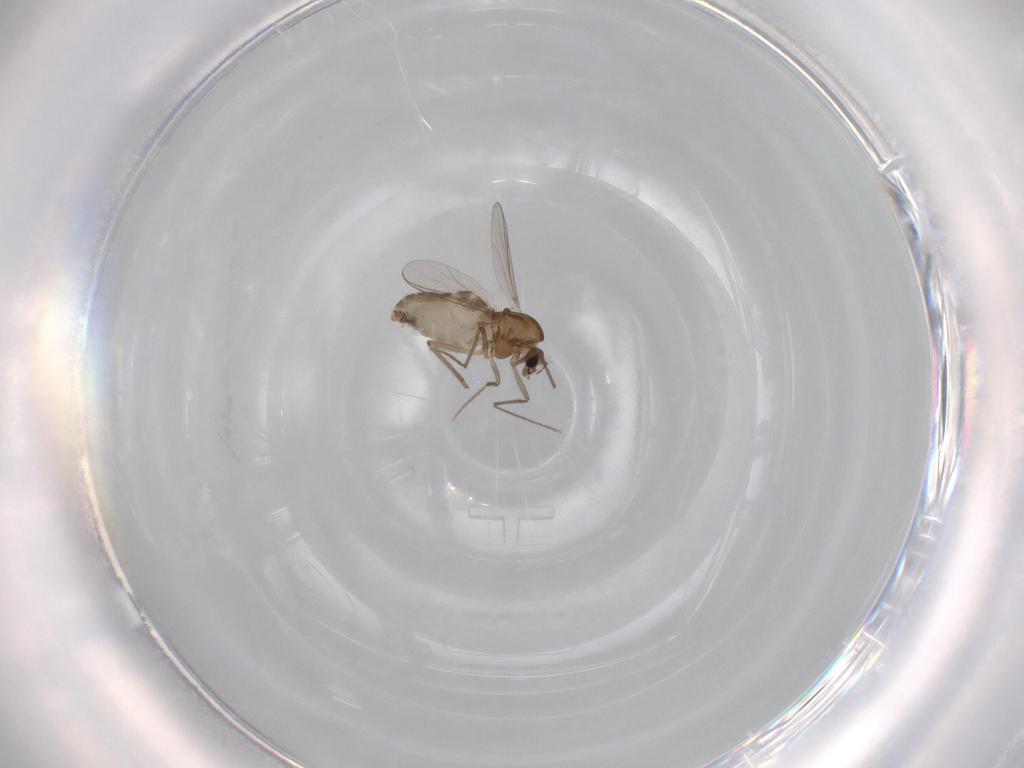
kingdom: Animalia
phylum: Arthropoda
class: Insecta
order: Diptera
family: Chironomidae
